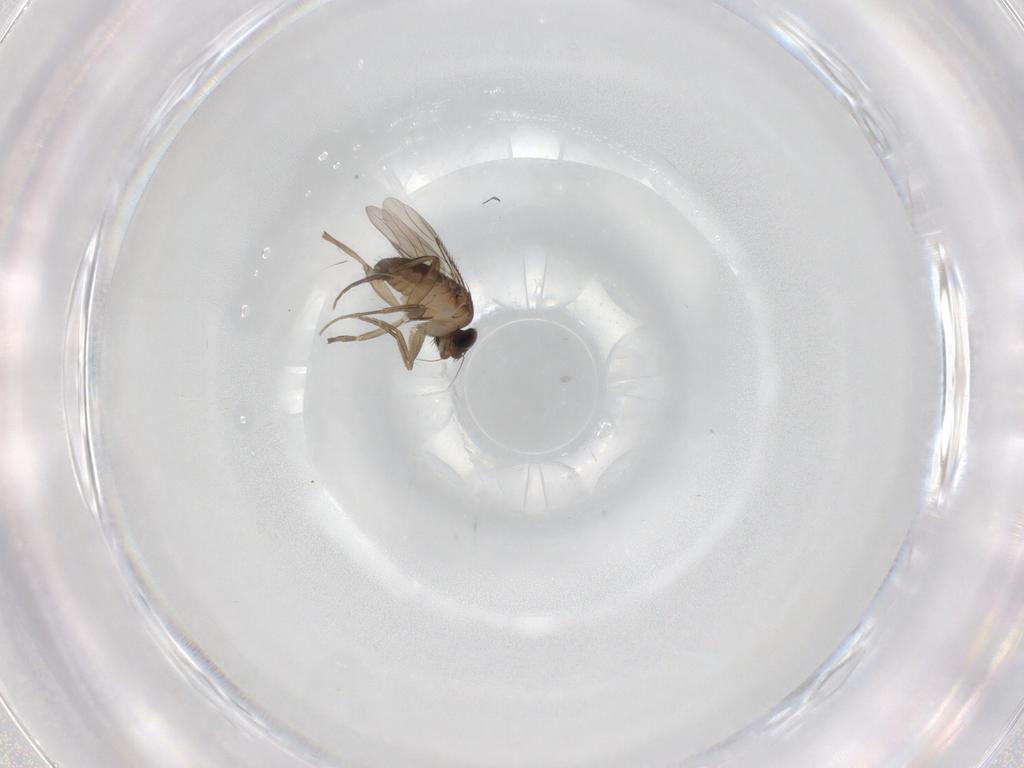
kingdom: Animalia
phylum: Arthropoda
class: Insecta
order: Diptera
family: Phoridae
